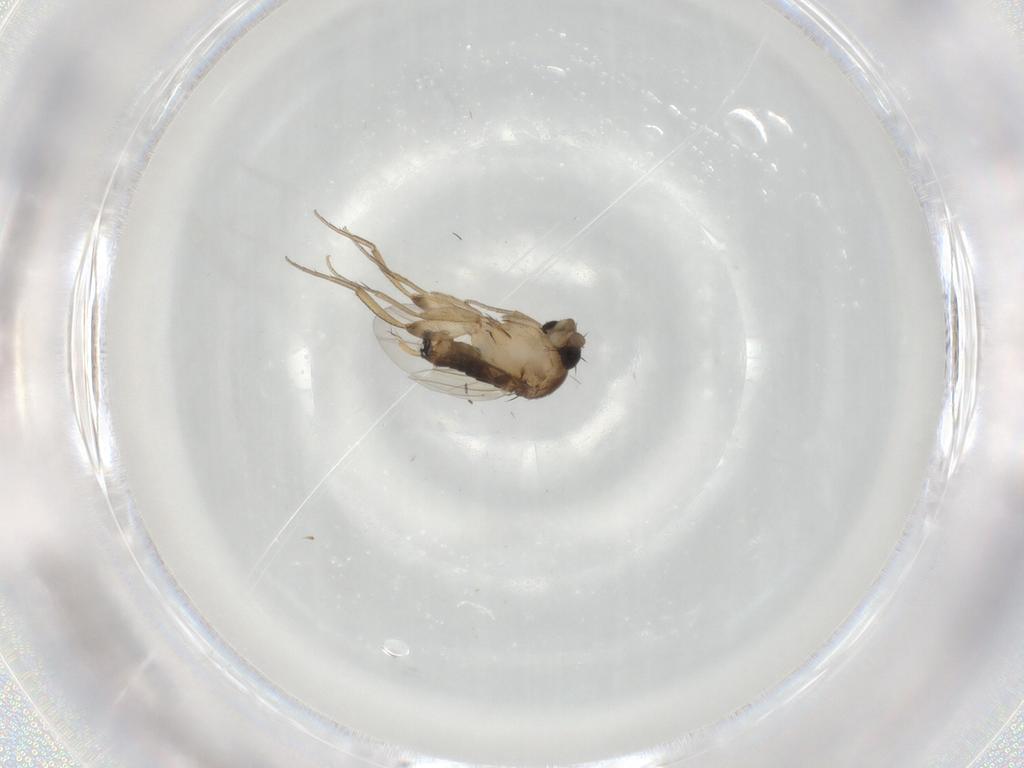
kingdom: Animalia
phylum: Arthropoda
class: Insecta
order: Diptera
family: Phoridae
